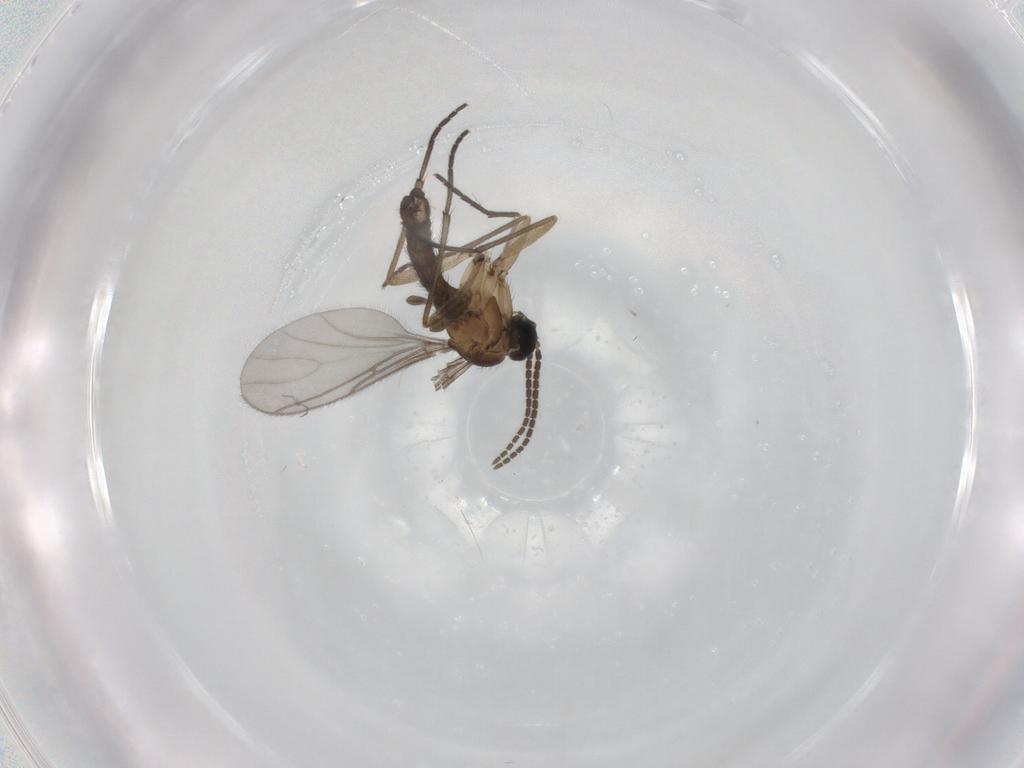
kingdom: Animalia
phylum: Arthropoda
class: Insecta
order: Diptera
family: Sciaridae
